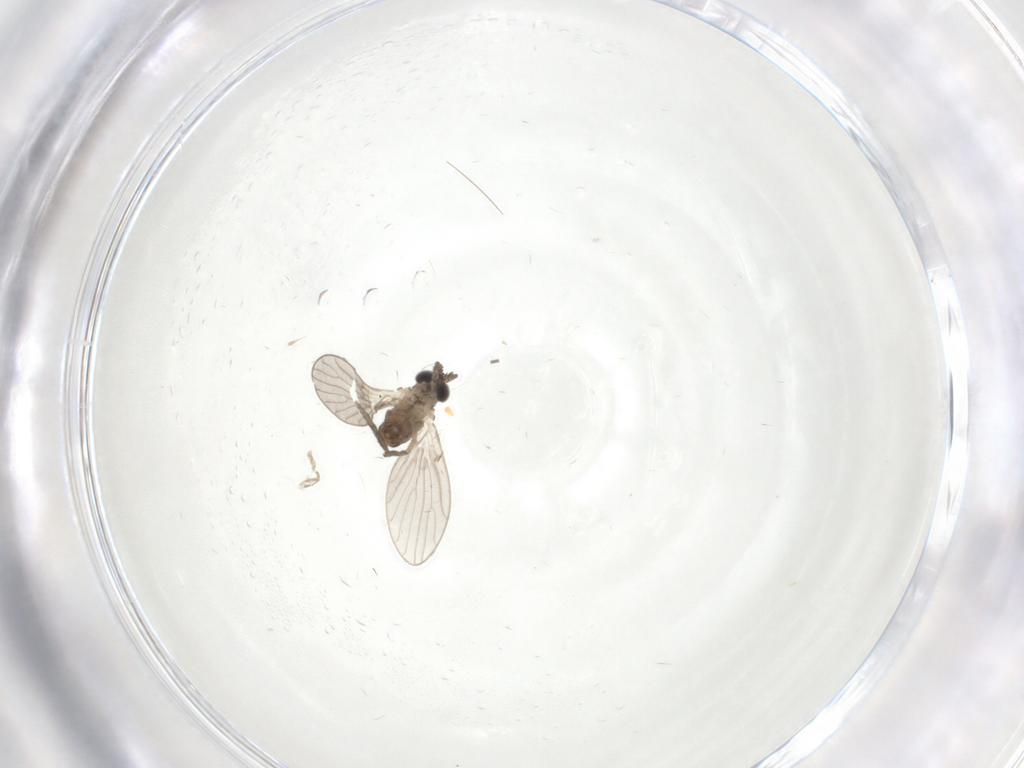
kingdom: Animalia
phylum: Arthropoda
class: Insecta
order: Diptera
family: Psychodidae
